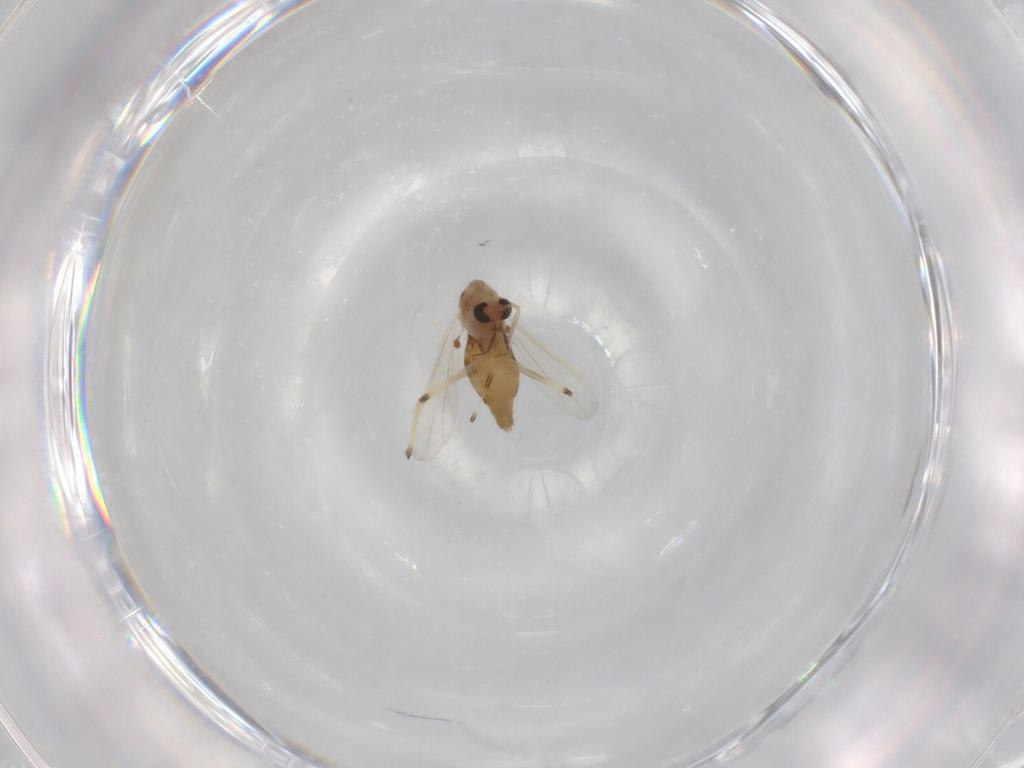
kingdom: Animalia
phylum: Arthropoda
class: Insecta
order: Diptera
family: Chironomidae
